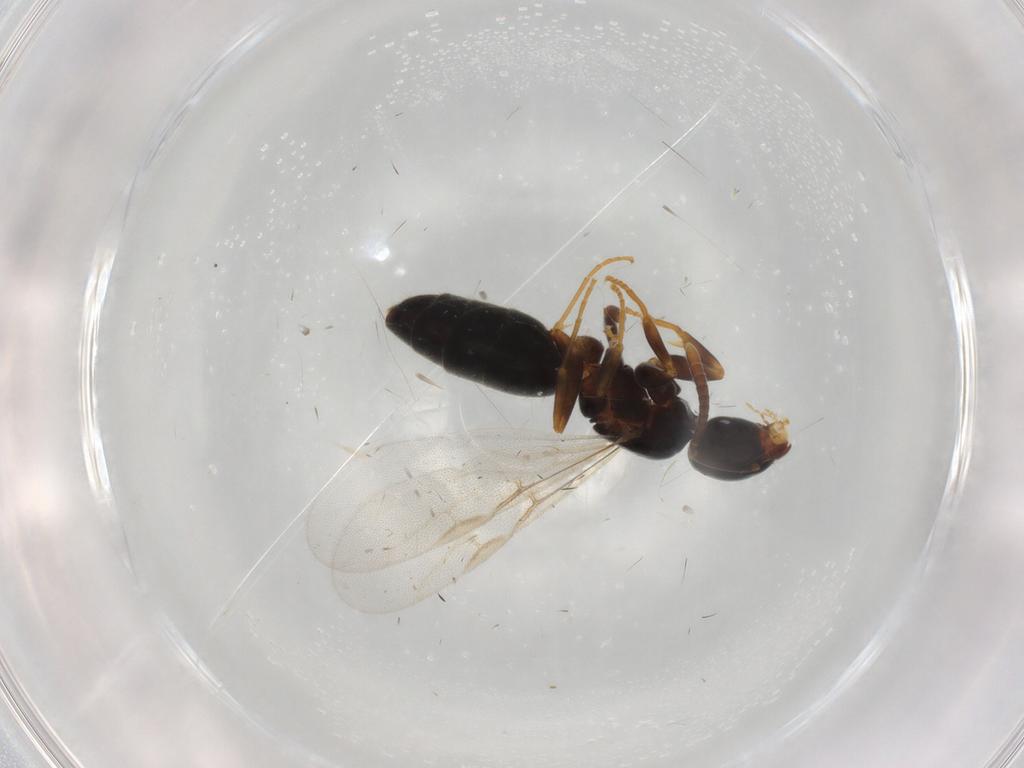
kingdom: Animalia
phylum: Arthropoda
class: Insecta
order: Hymenoptera
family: Formicidae
